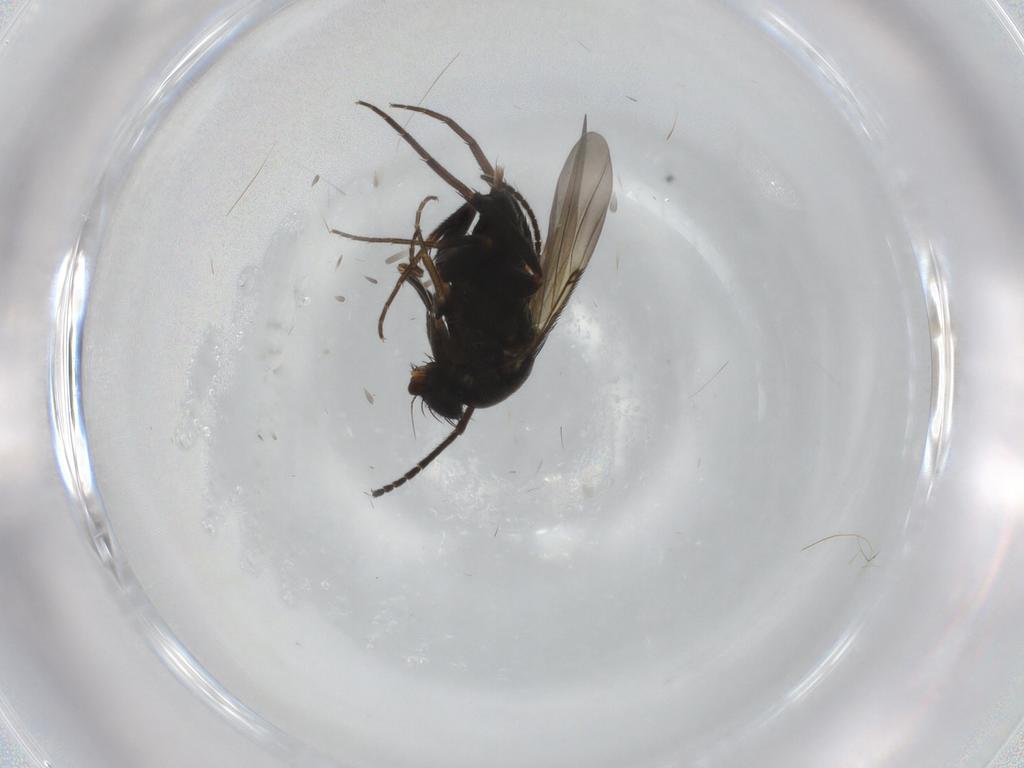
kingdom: Animalia
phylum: Arthropoda
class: Insecta
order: Diptera
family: Phoridae
